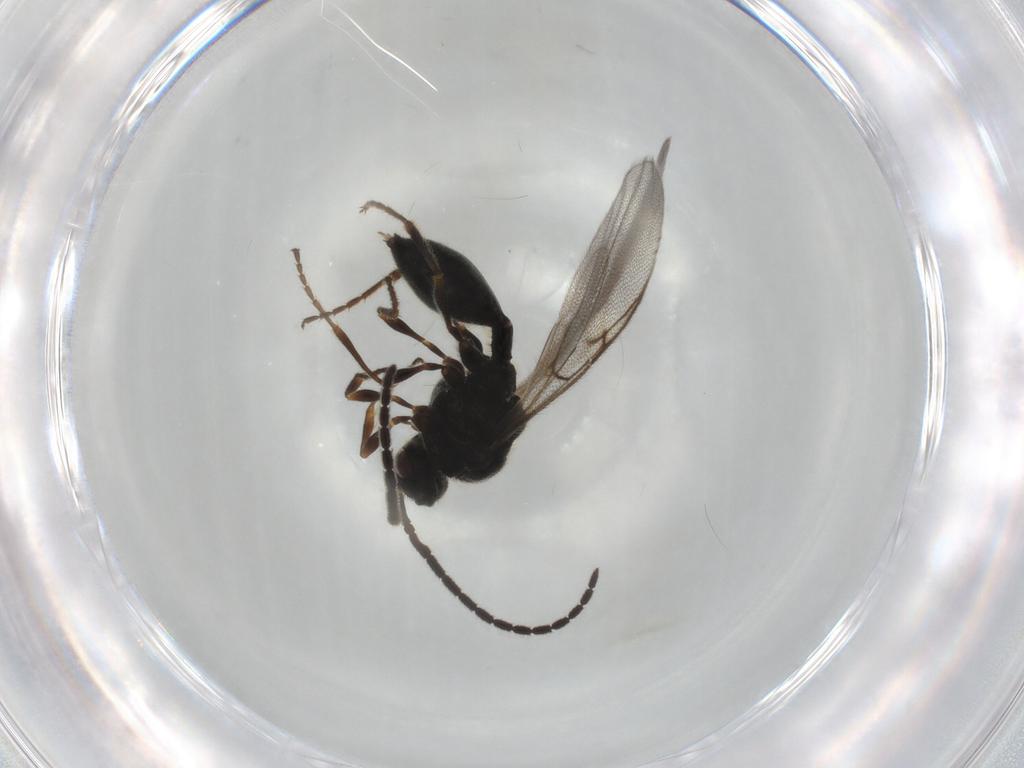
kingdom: Animalia
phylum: Arthropoda
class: Insecta
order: Hymenoptera
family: Diapriidae
